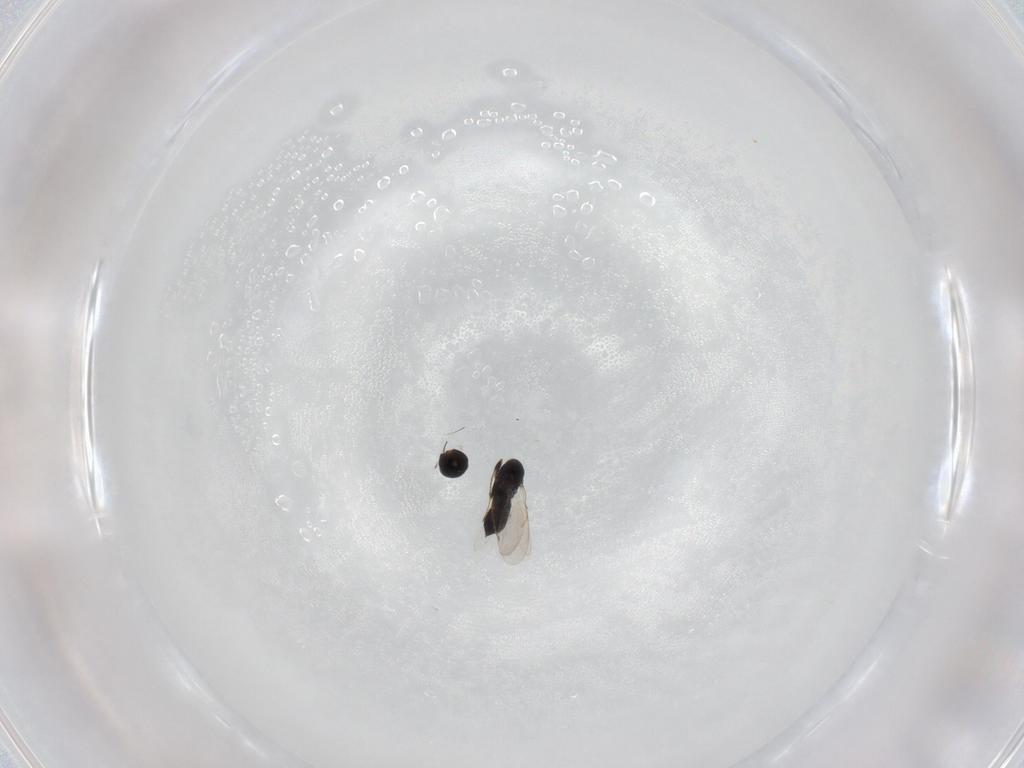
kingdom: Animalia
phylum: Arthropoda
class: Insecta
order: Hymenoptera
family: Scelionidae
